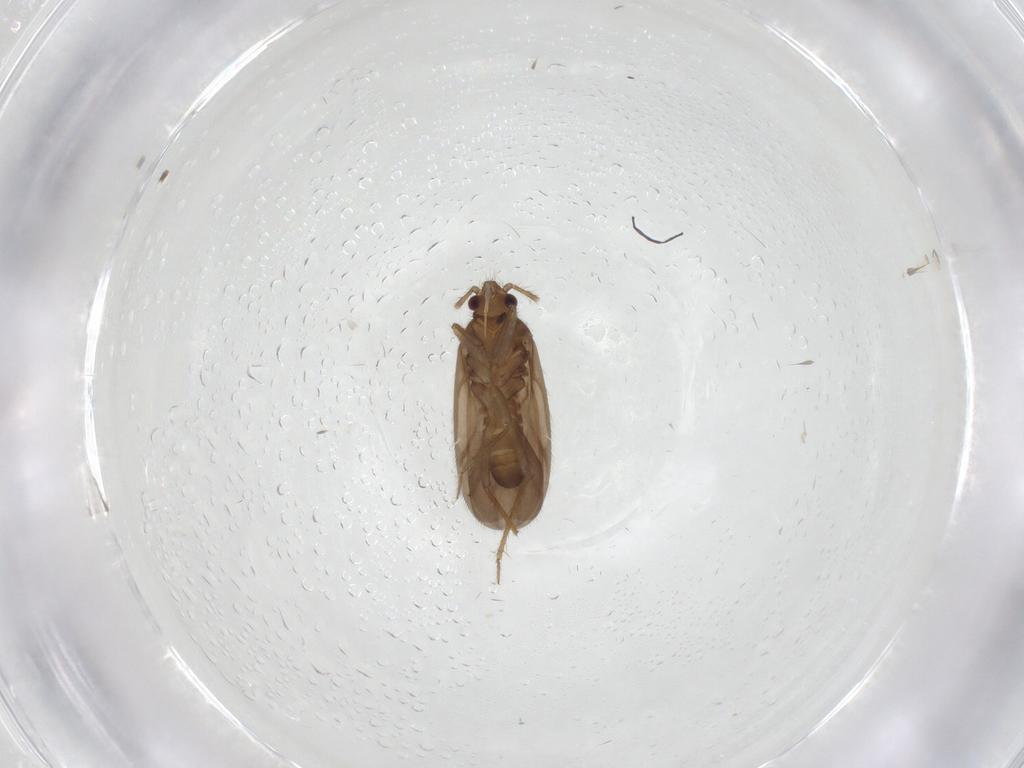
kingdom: Animalia
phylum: Arthropoda
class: Insecta
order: Hemiptera
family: Ceratocombidae
